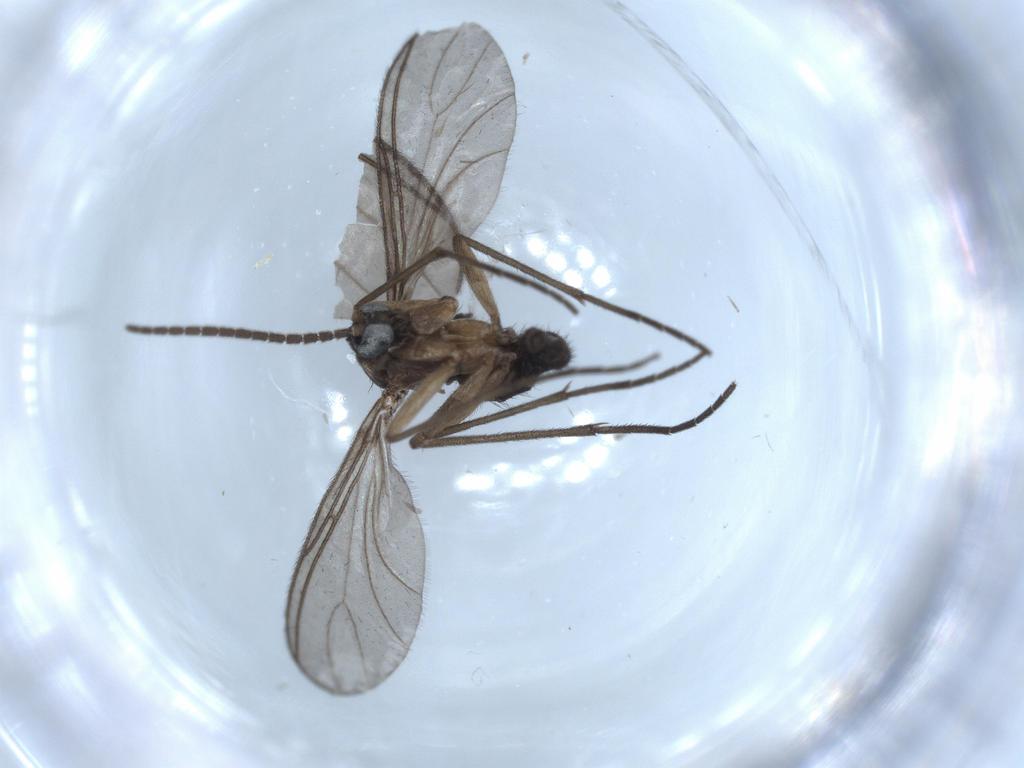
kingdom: Animalia
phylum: Arthropoda
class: Insecta
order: Diptera
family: Sciaridae
